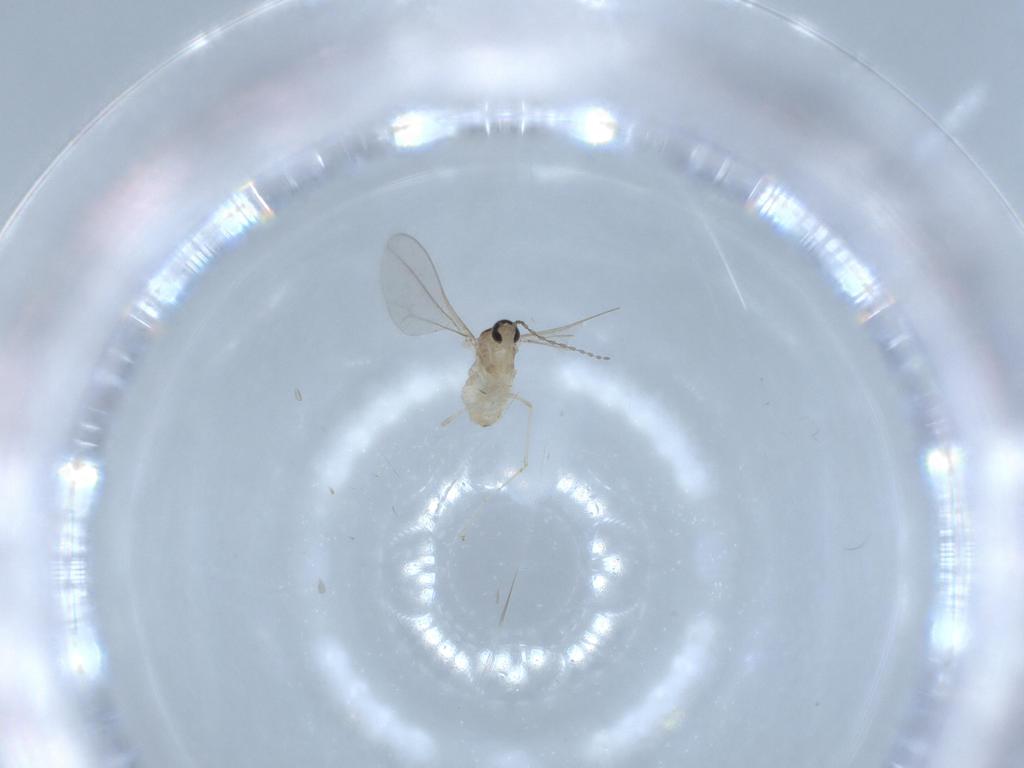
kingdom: Animalia
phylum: Arthropoda
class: Insecta
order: Diptera
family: Cecidomyiidae
